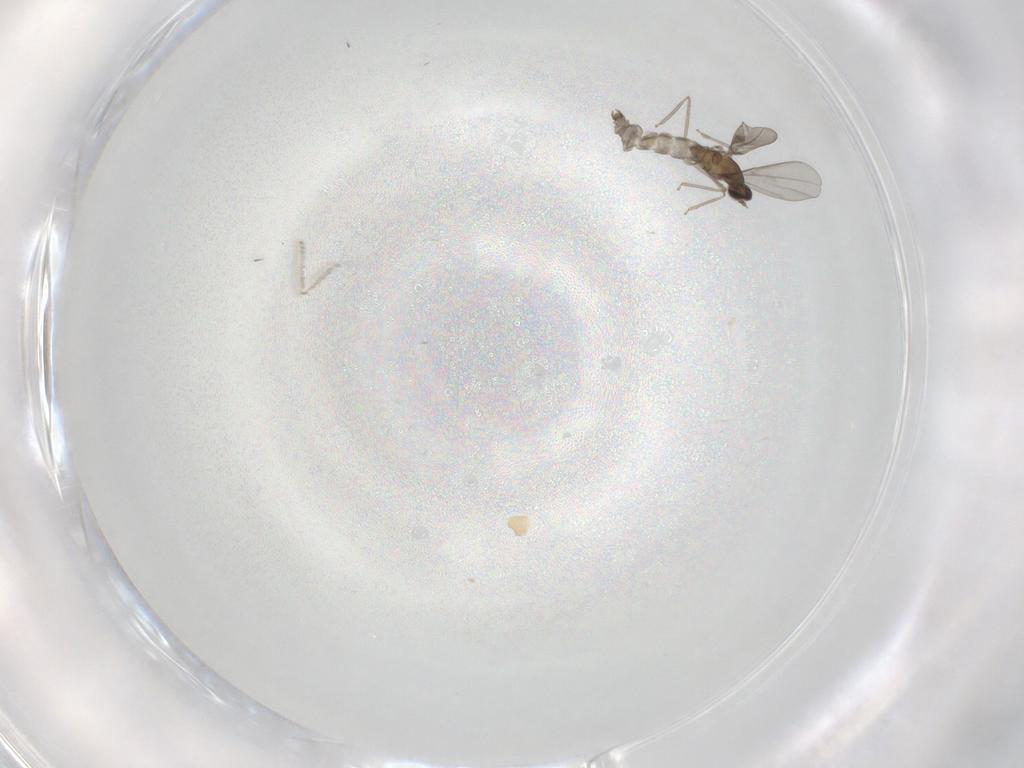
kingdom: Animalia
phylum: Arthropoda
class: Insecta
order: Diptera
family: Cecidomyiidae
